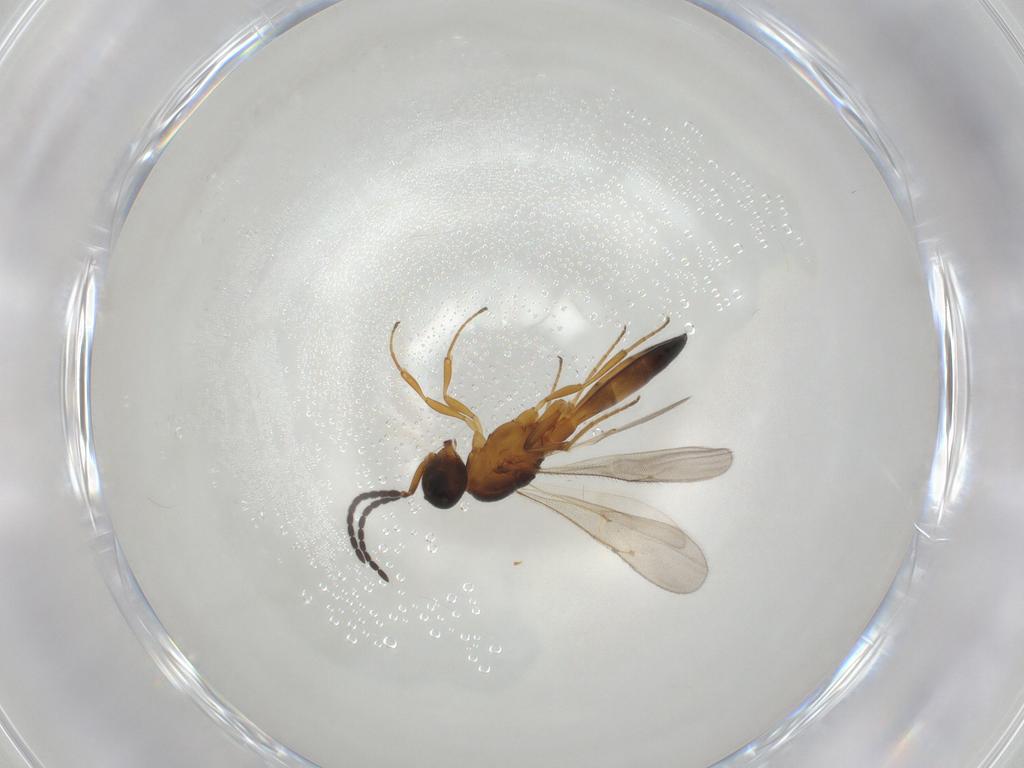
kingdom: Animalia
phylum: Arthropoda
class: Insecta
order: Hymenoptera
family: Scelionidae
